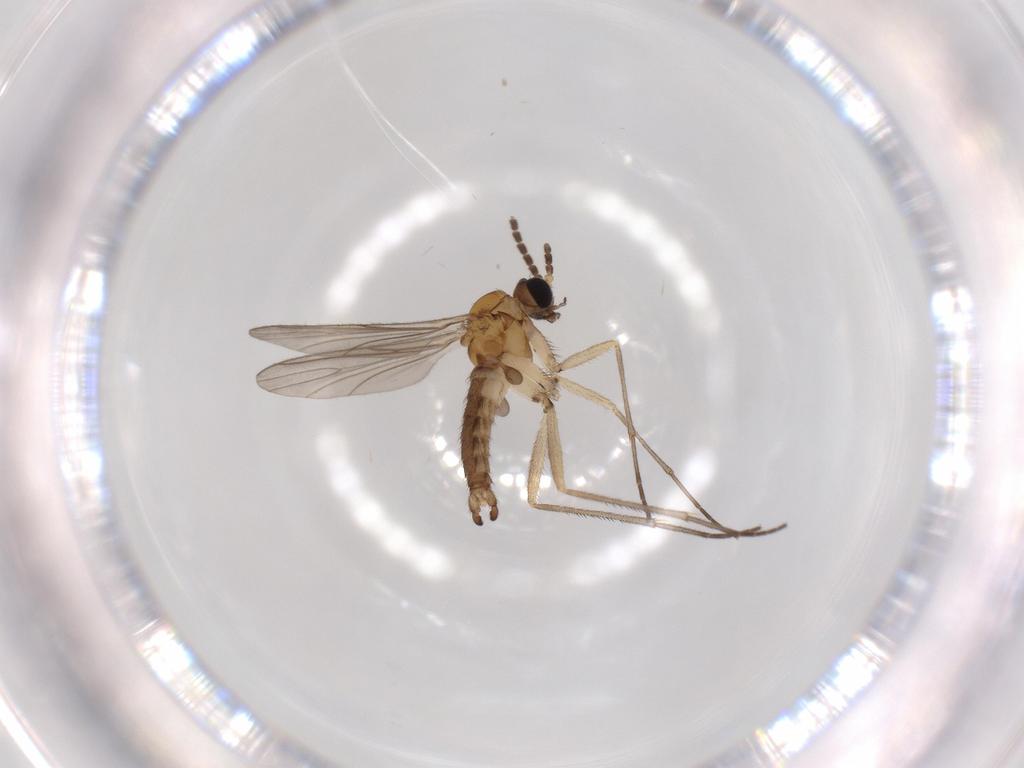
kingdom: Animalia
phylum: Arthropoda
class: Insecta
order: Diptera
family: Sciaridae
